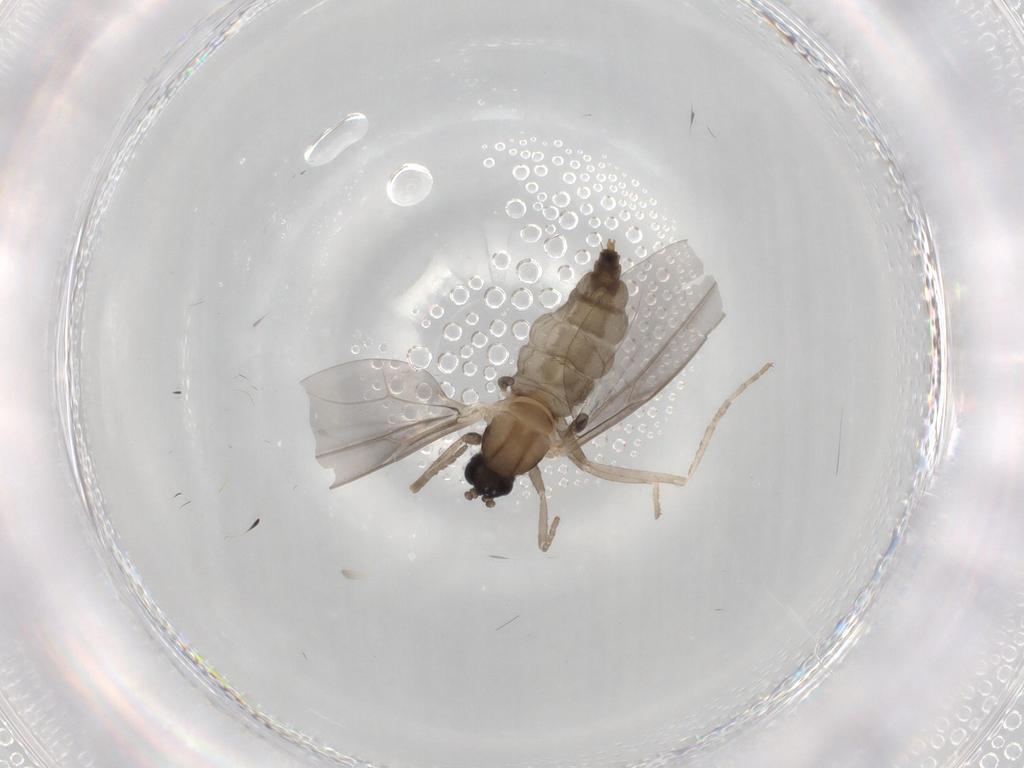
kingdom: Animalia
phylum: Arthropoda
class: Insecta
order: Diptera
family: Cecidomyiidae
